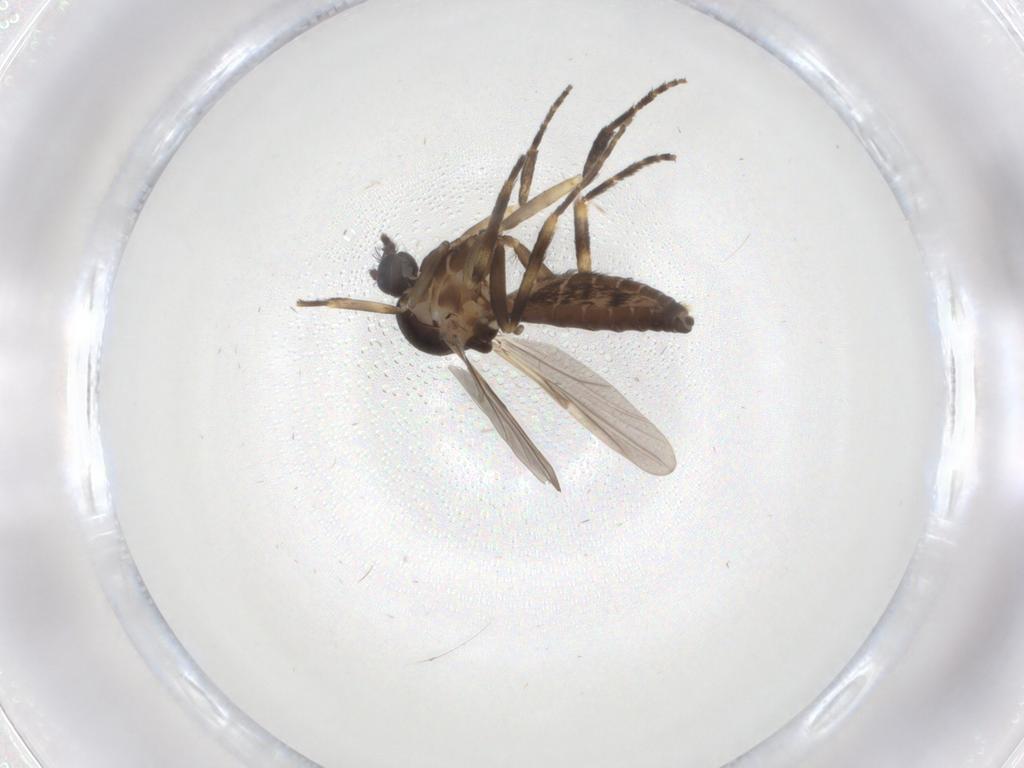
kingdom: Animalia
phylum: Arthropoda
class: Insecta
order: Diptera
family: Ceratopogonidae
